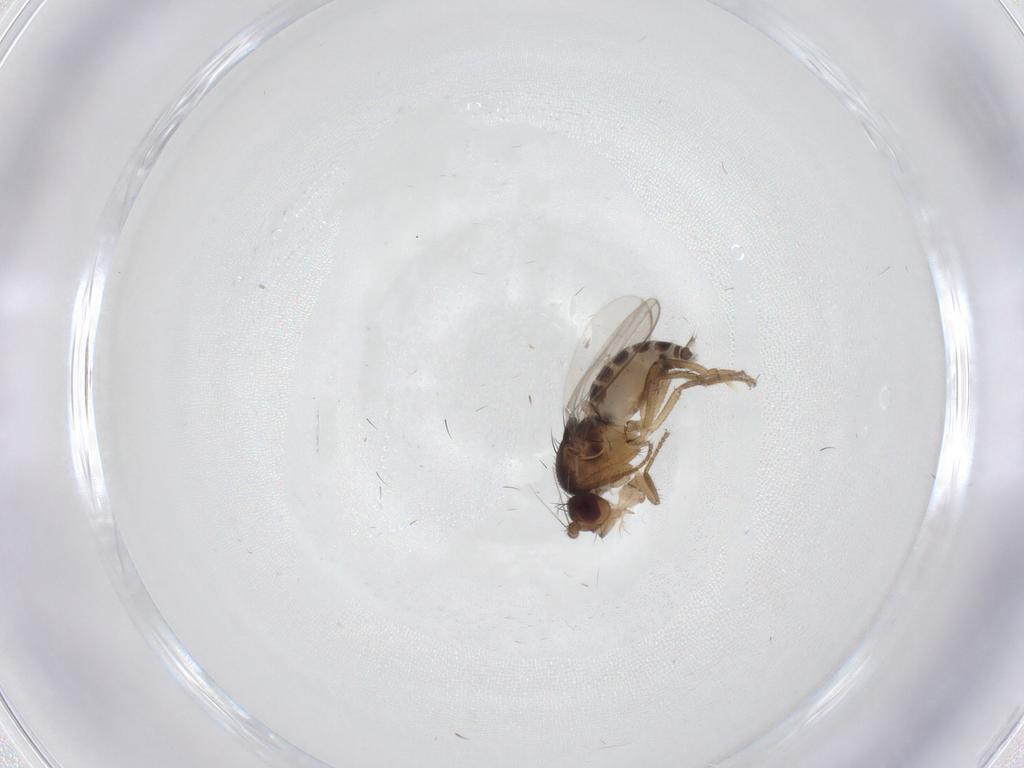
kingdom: Animalia
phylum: Arthropoda
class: Insecta
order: Diptera
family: Sphaeroceridae
